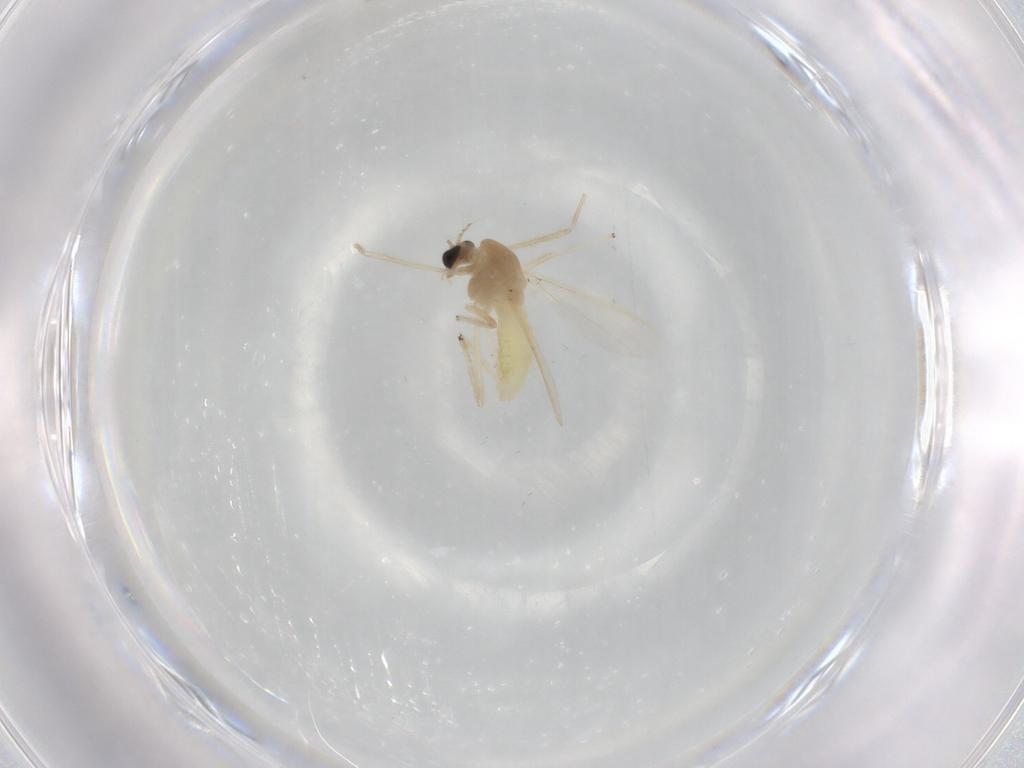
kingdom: Animalia
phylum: Arthropoda
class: Insecta
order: Diptera
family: Chironomidae
